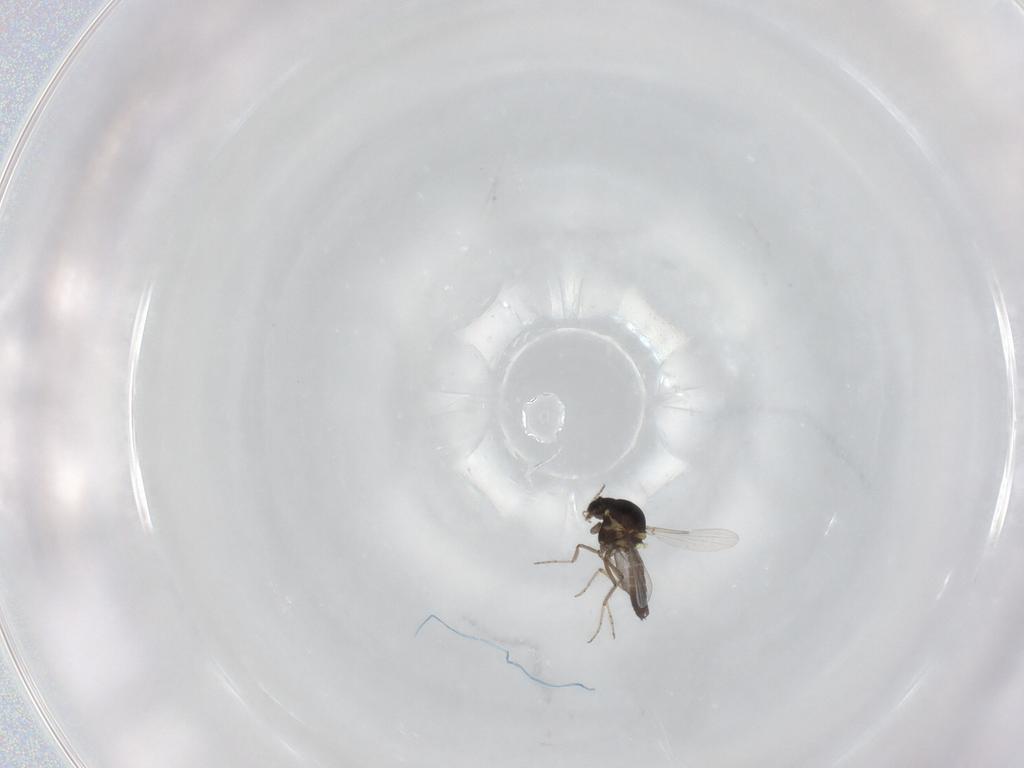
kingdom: Animalia
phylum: Arthropoda
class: Insecta
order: Diptera
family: Ceratopogonidae
